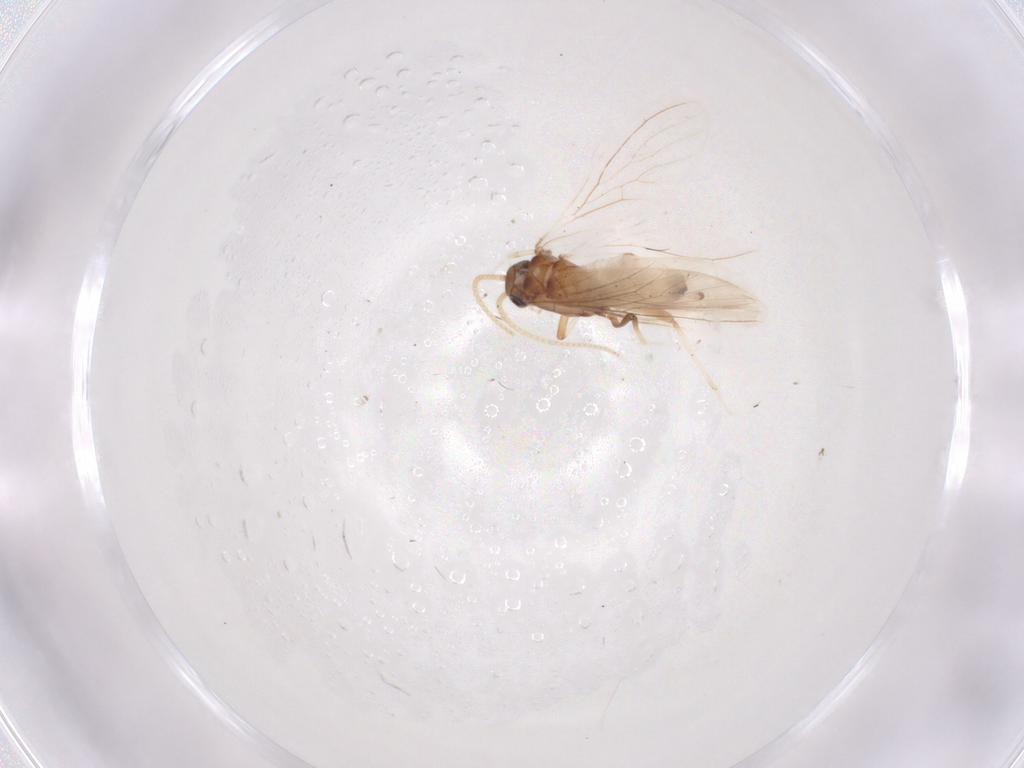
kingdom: Animalia
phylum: Arthropoda
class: Insecta
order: Neuroptera
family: Coniopterygidae
